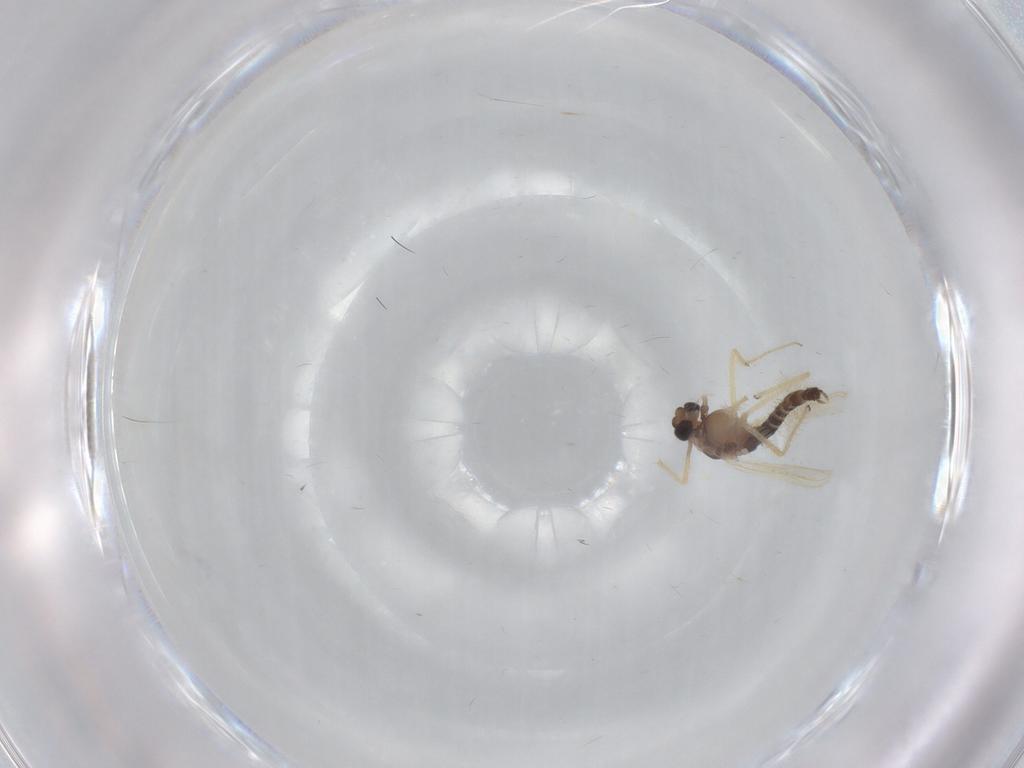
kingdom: Animalia
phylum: Arthropoda
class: Insecta
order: Diptera
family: Chironomidae
